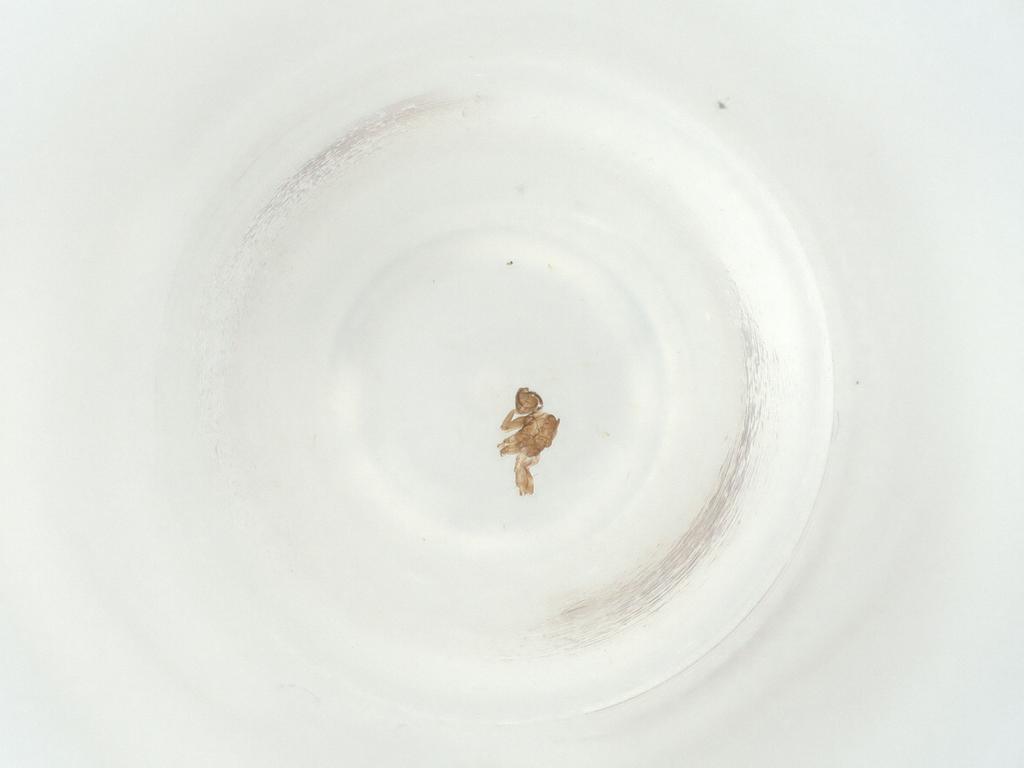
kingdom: Animalia
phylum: Arthropoda
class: Insecta
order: Diptera
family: Sciaridae
